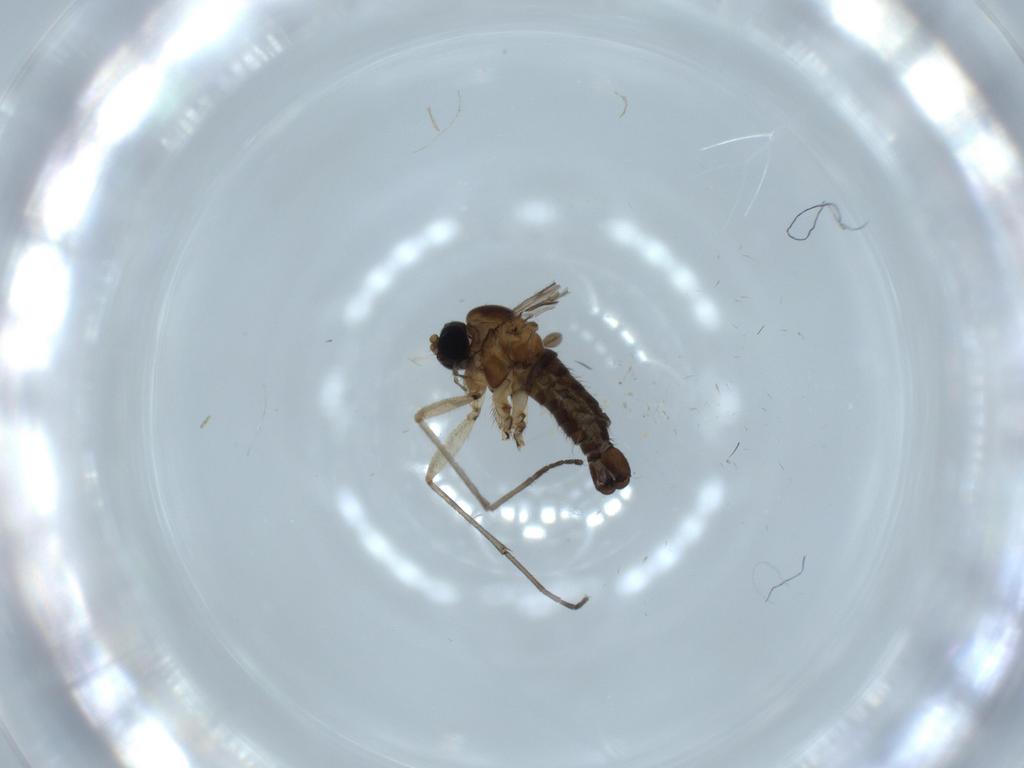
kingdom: Animalia
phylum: Arthropoda
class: Insecta
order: Diptera
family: Sciaridae
